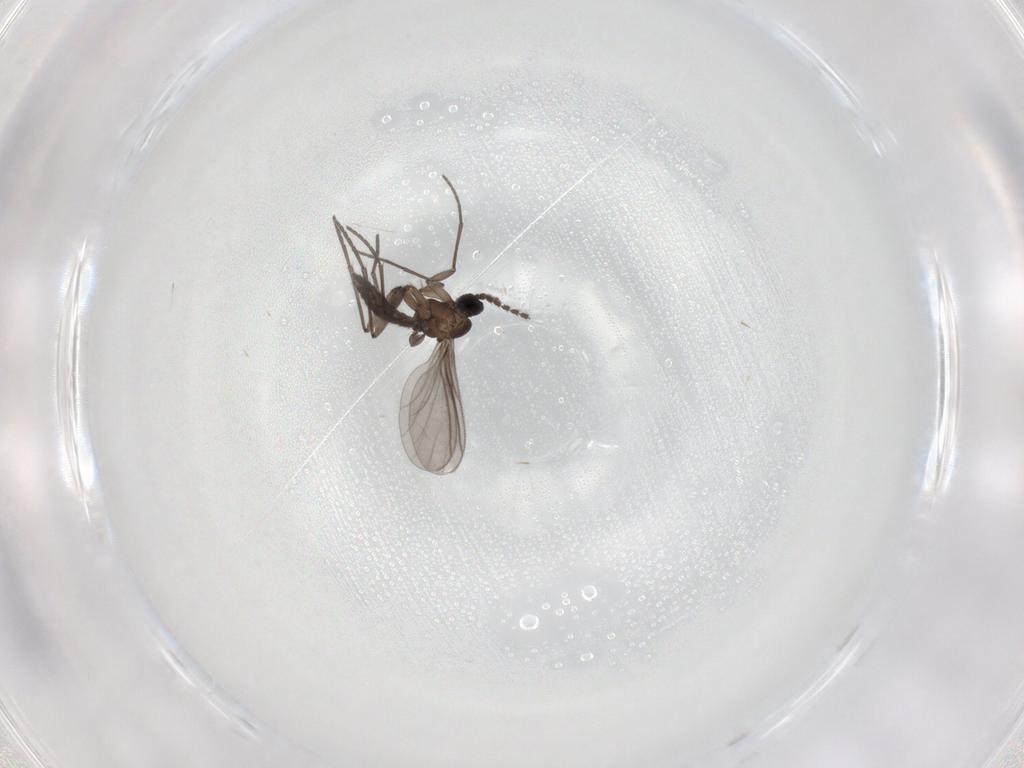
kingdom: Animalia
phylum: Arthropoda
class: Insecta
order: Diptera
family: Chironomidae
